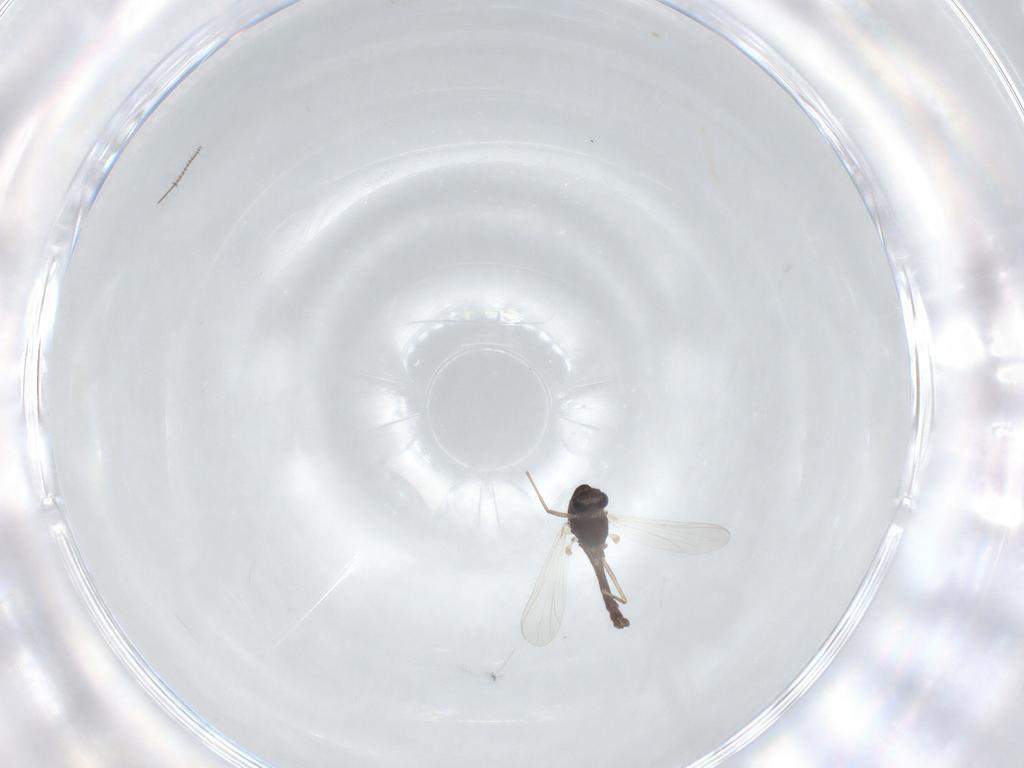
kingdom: Animalia
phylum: Arthropoda
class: Insecta
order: Diptera
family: Chironomidae
